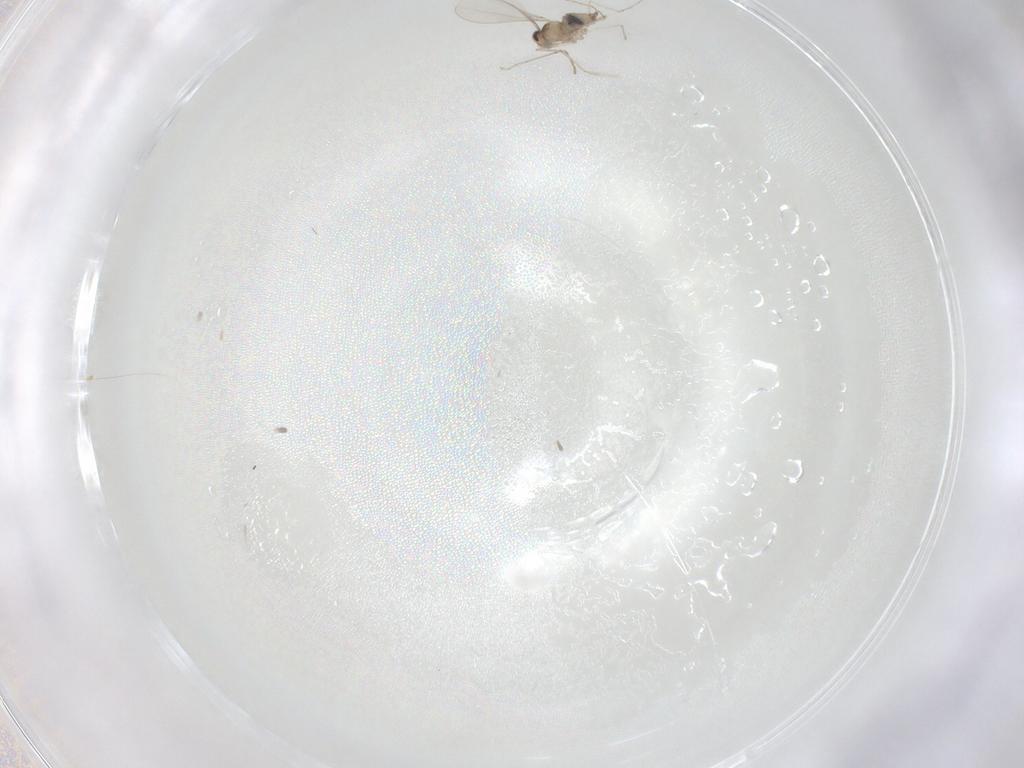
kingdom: Animalia
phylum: Arthropoda
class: Insecta
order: Diptera
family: Cecidomyiidae
